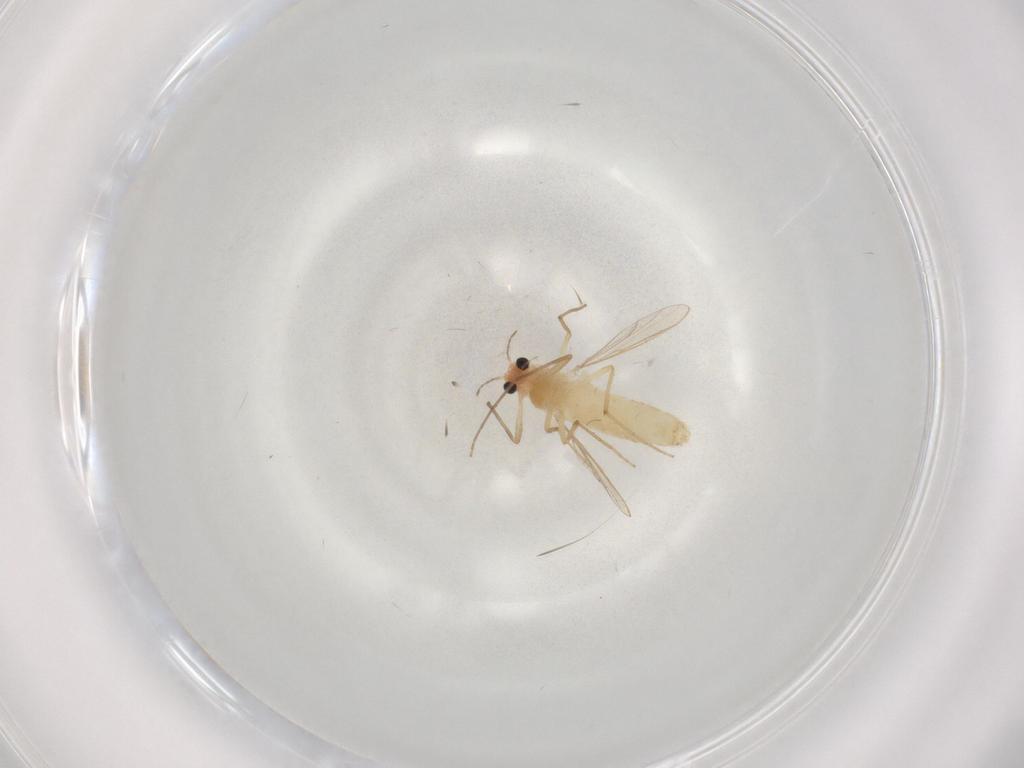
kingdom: Animalia
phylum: Arthropoda
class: Insecta
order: Diptera
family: Chironomidae
